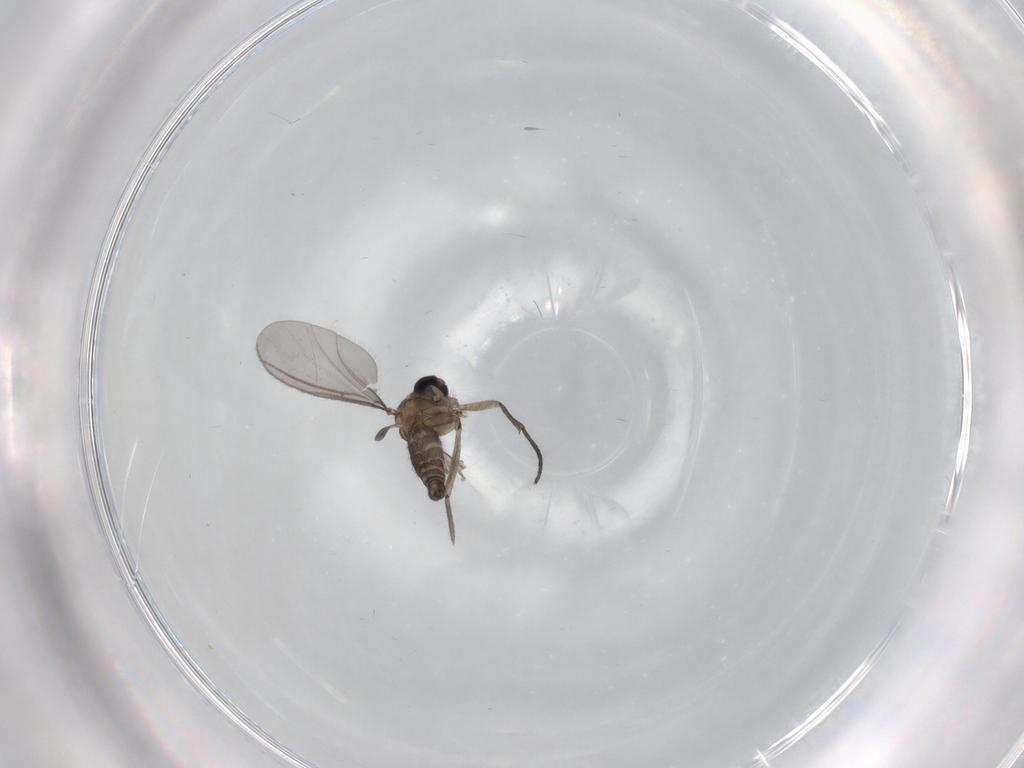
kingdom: Animalia
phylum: Arthropoda
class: Insecta
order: Diptera
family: Sciaridae
